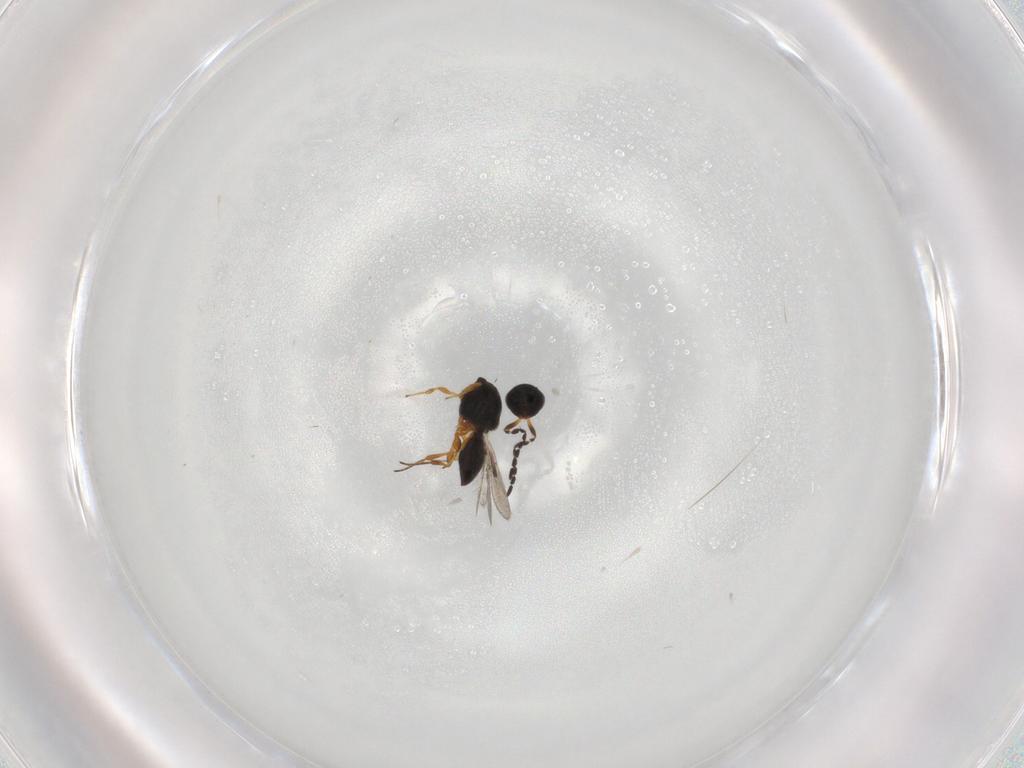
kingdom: Animalia
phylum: Arthropoda
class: Insecta
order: Hymenoptera
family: Platygastridae
